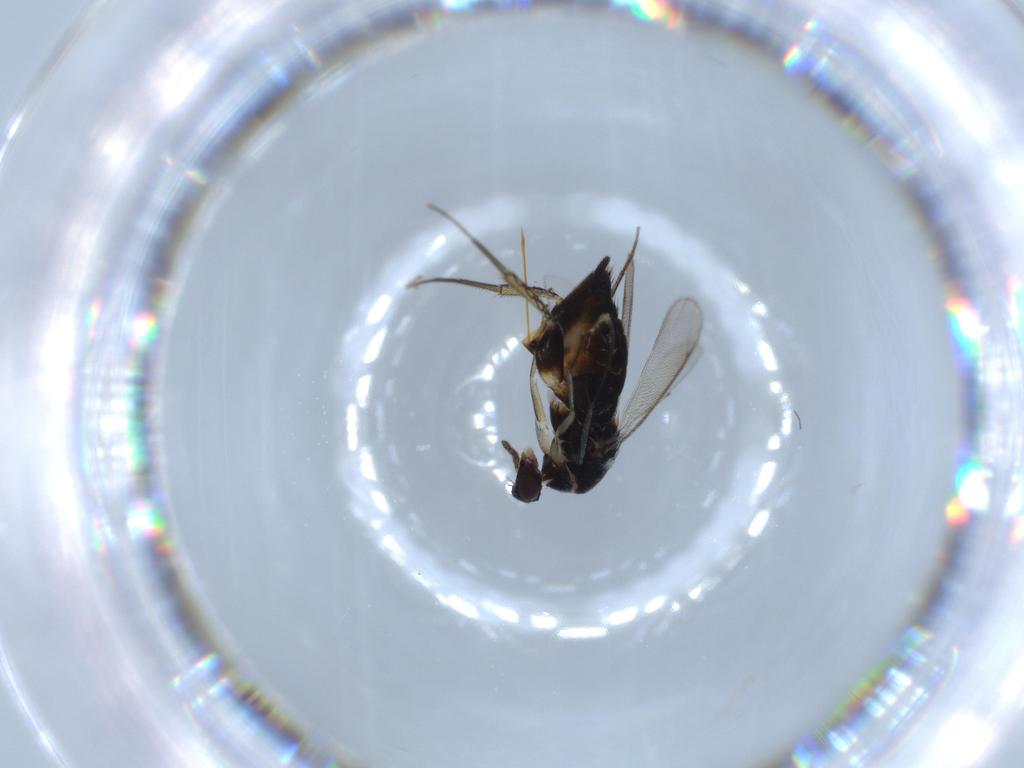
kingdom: Animalia
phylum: Arthropoda
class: Insecta
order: Hymenoptera
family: Eulophidae
